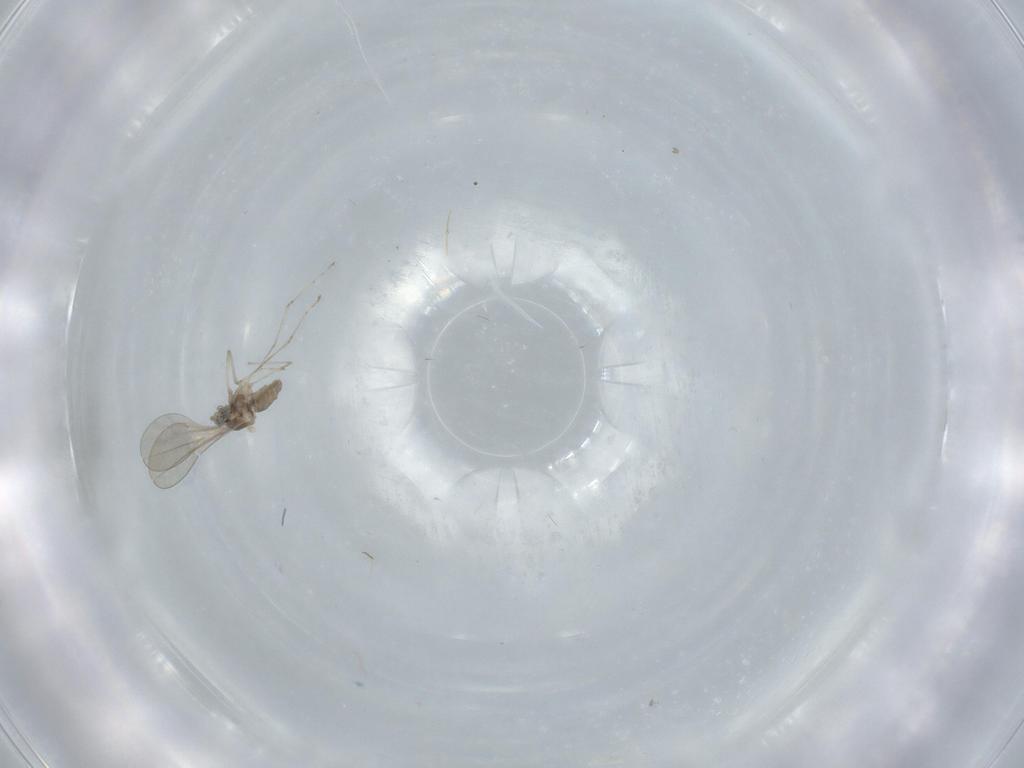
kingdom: Animalia
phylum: Arthropoda
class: Insecta
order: Diptera
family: Cecidomyiidae
